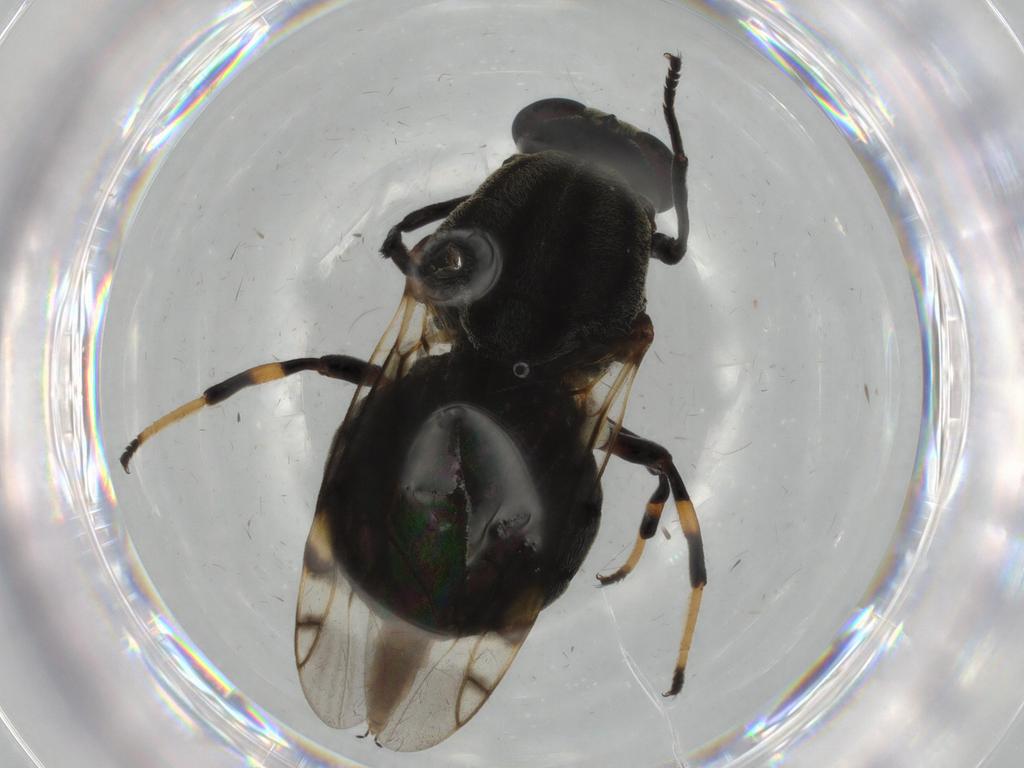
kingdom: Animalia
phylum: Arthropoda
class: Insecta
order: Diptera
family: Stratiomyidae
